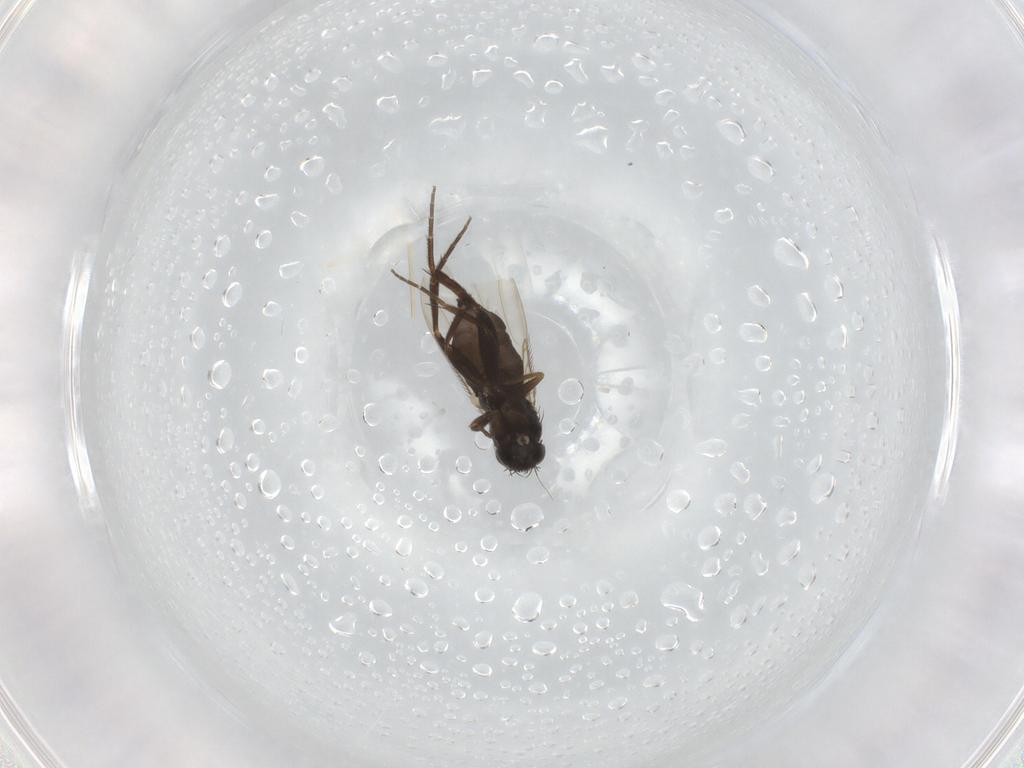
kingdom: Animalia
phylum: Arthropoda
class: Insecta
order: Diptera
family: Phoridae
